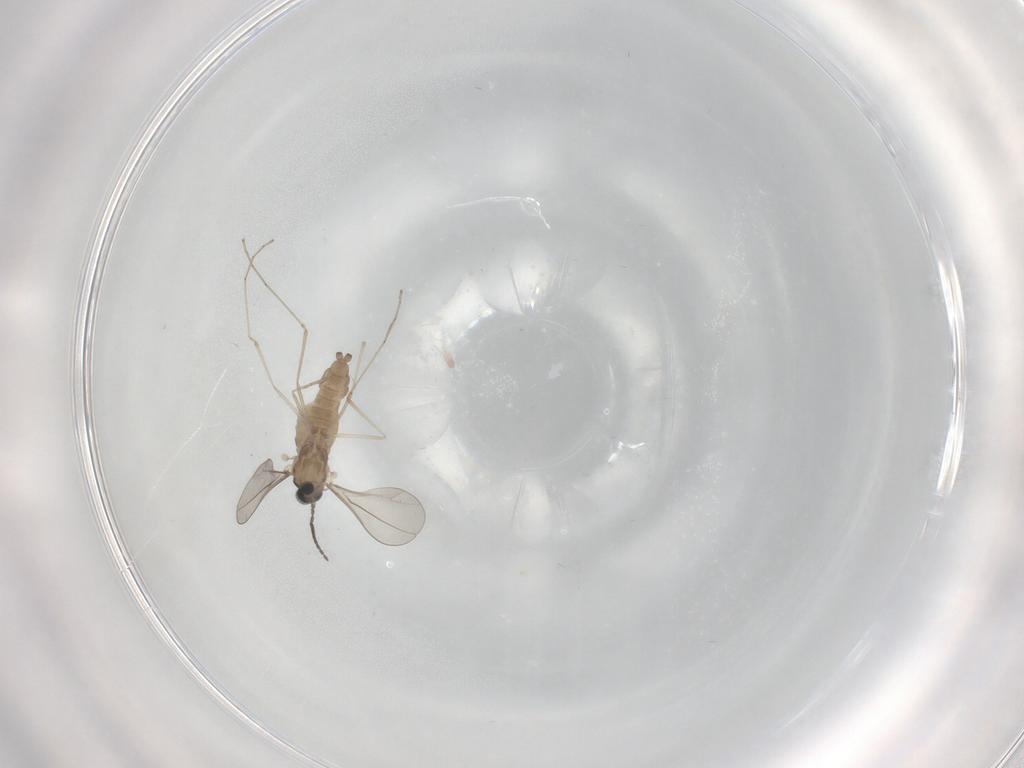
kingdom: Animalia
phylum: Arthropoda
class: Insecta
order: Diptera
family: Cecidomyiidae
